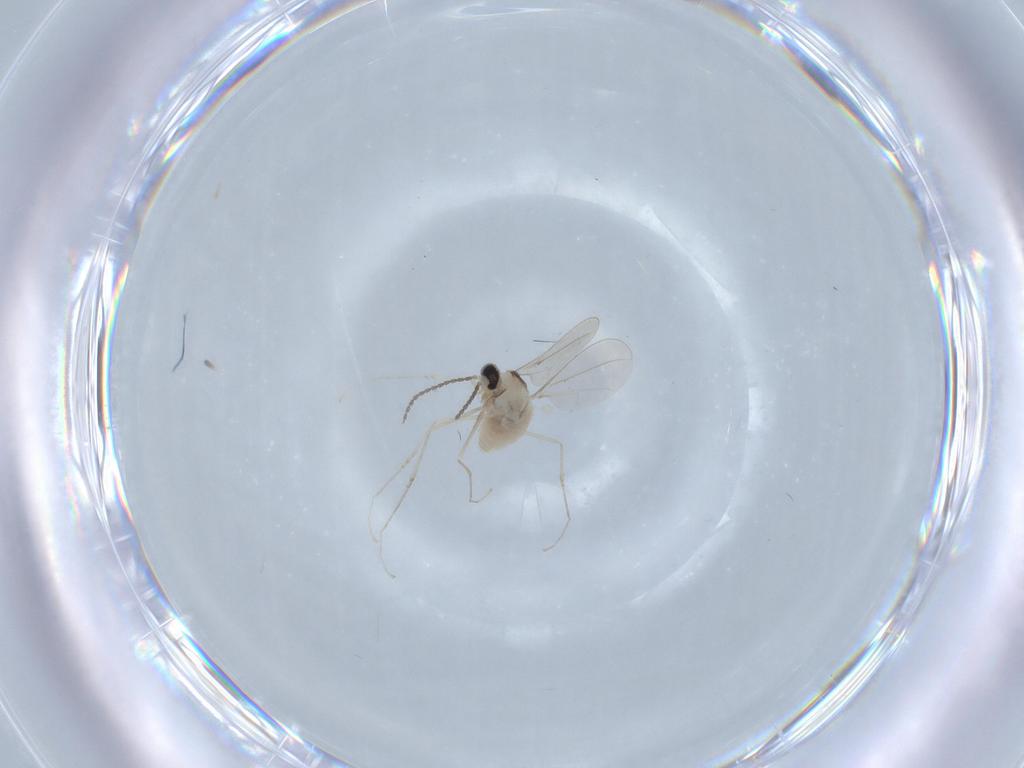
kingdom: Animalia
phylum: Arthropoda
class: Insecta
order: Diptera
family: Cecidomyiidae
